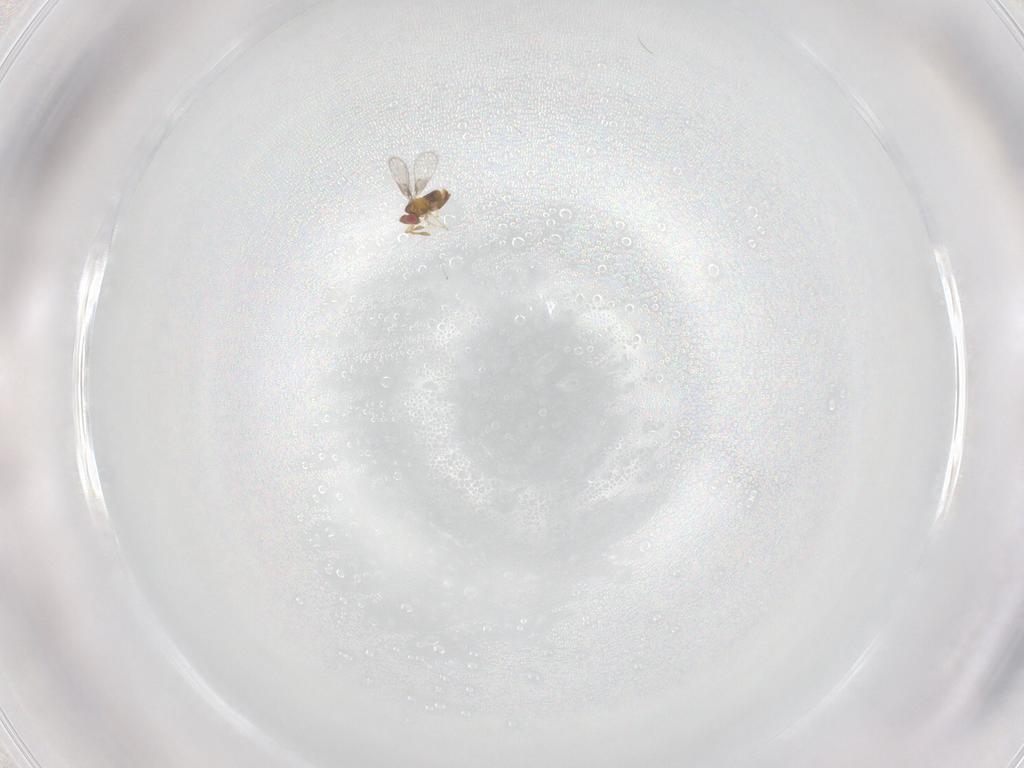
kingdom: Animalia
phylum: Arthropoda
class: Insecta
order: Hymenoptera
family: Trichogrammatidae
